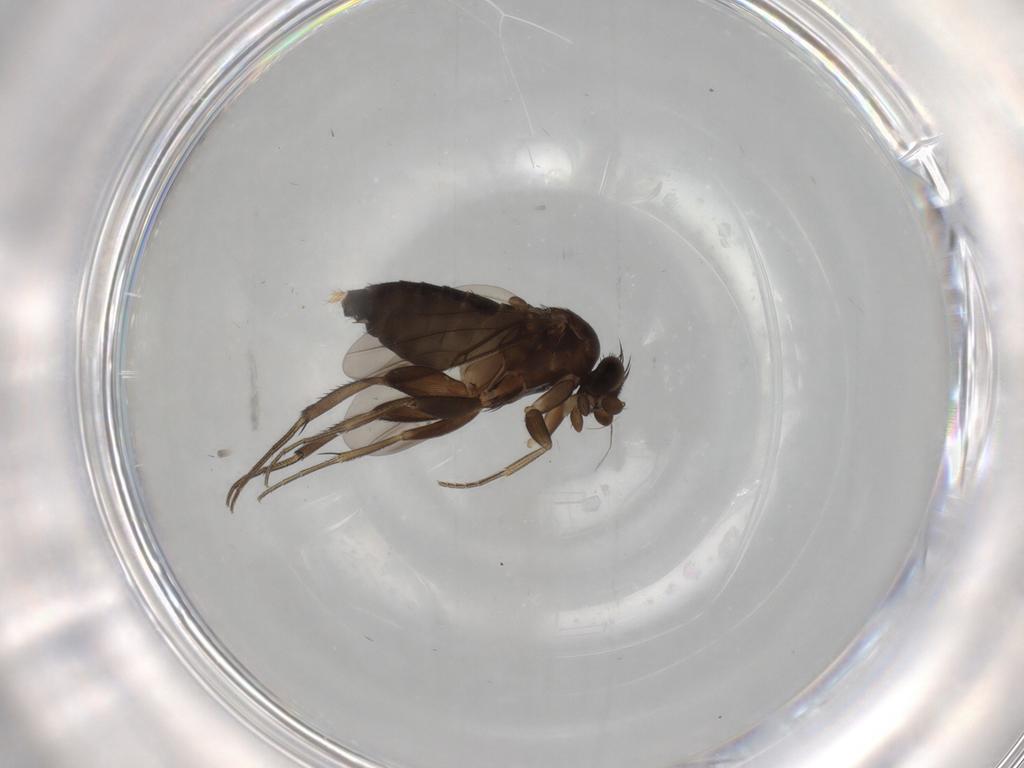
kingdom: Animalia
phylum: Arthropoda
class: Insecta
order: Diptera
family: Phoridae
